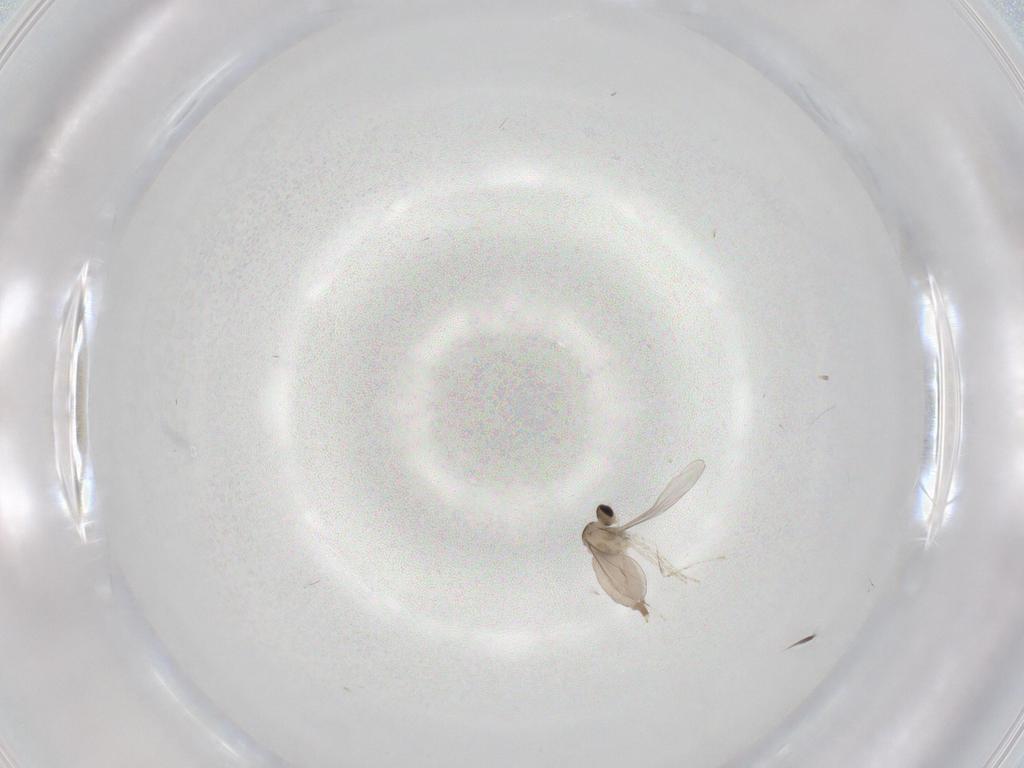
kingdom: Animalia
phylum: Arthropoda
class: Insecta
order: Diptera
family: Cecidomyiidae
